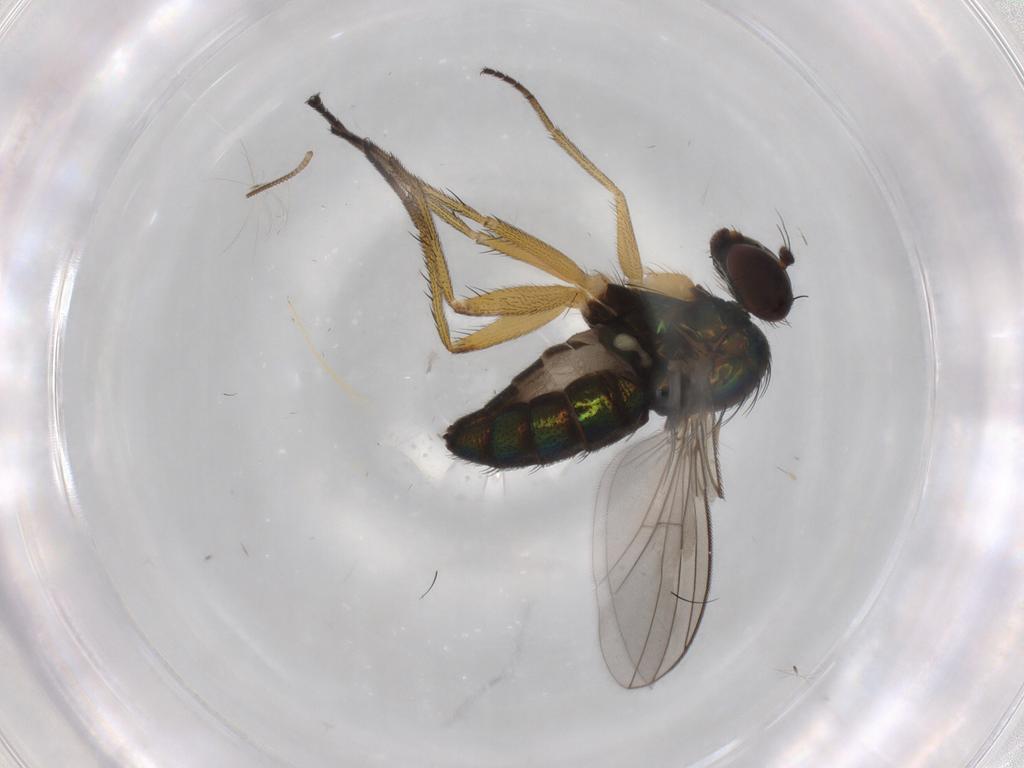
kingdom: Animalia
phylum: Arthropoda
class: Insecta
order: Diptera
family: Dolichopodidae
